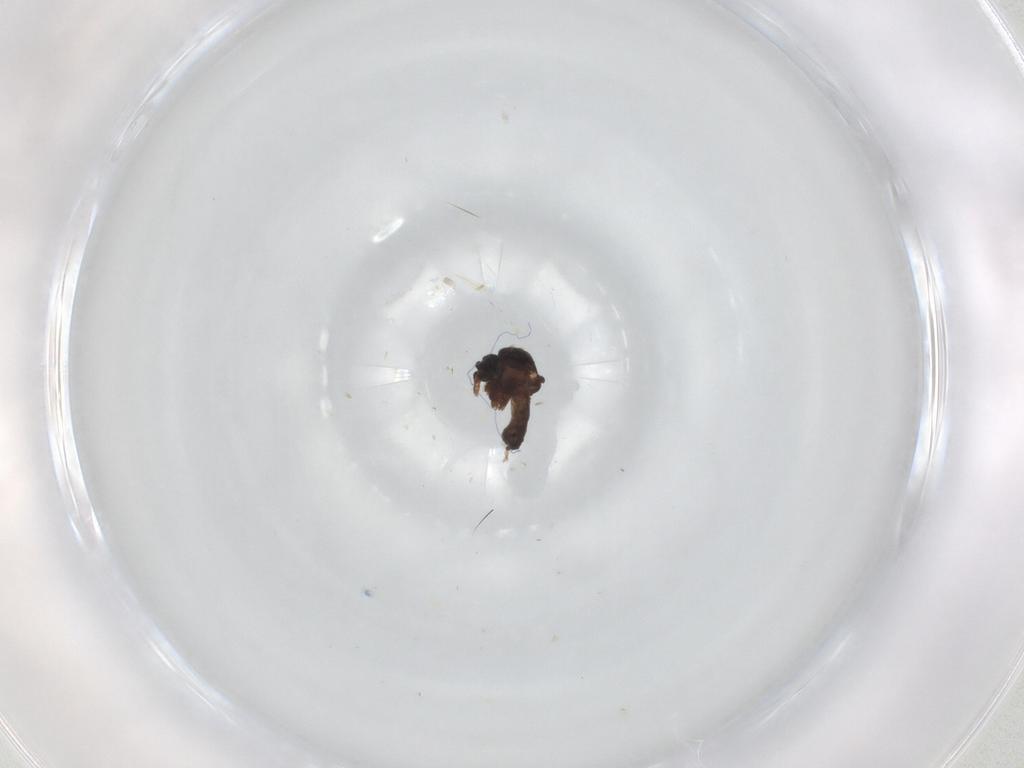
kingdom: Animalia
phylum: Arthropoda
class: Insecta
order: Diptera
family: Ceratopogonidae
